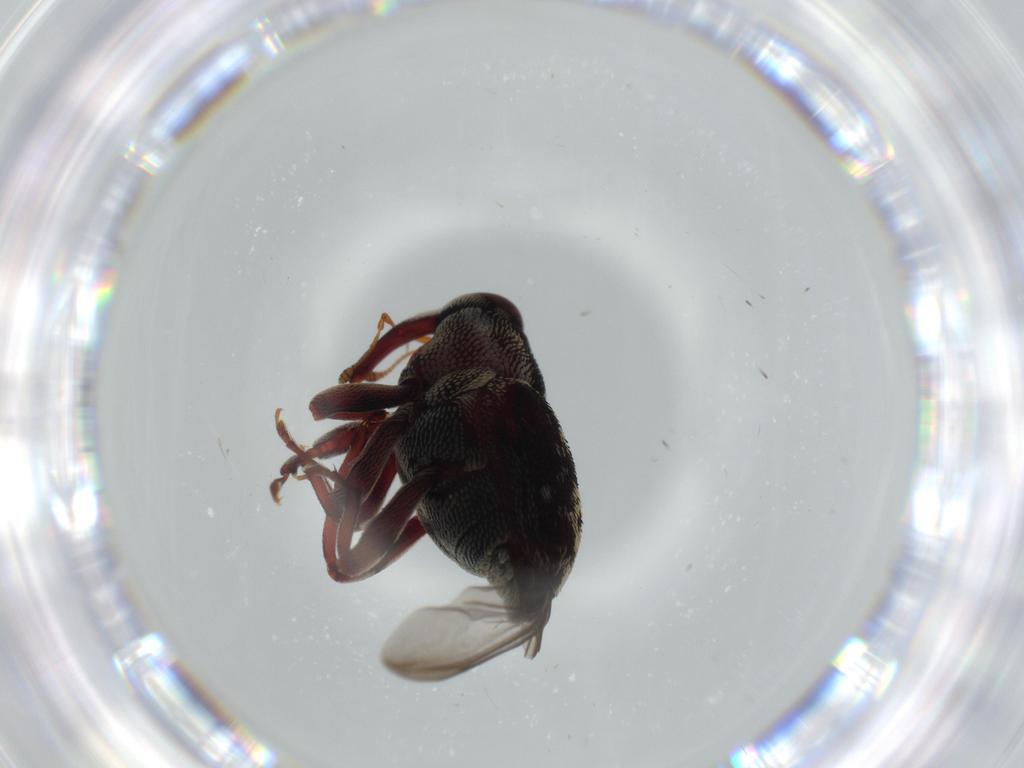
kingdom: Animalia
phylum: Arthropoda
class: Insecta
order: Coleoptera
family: Curculionidae
